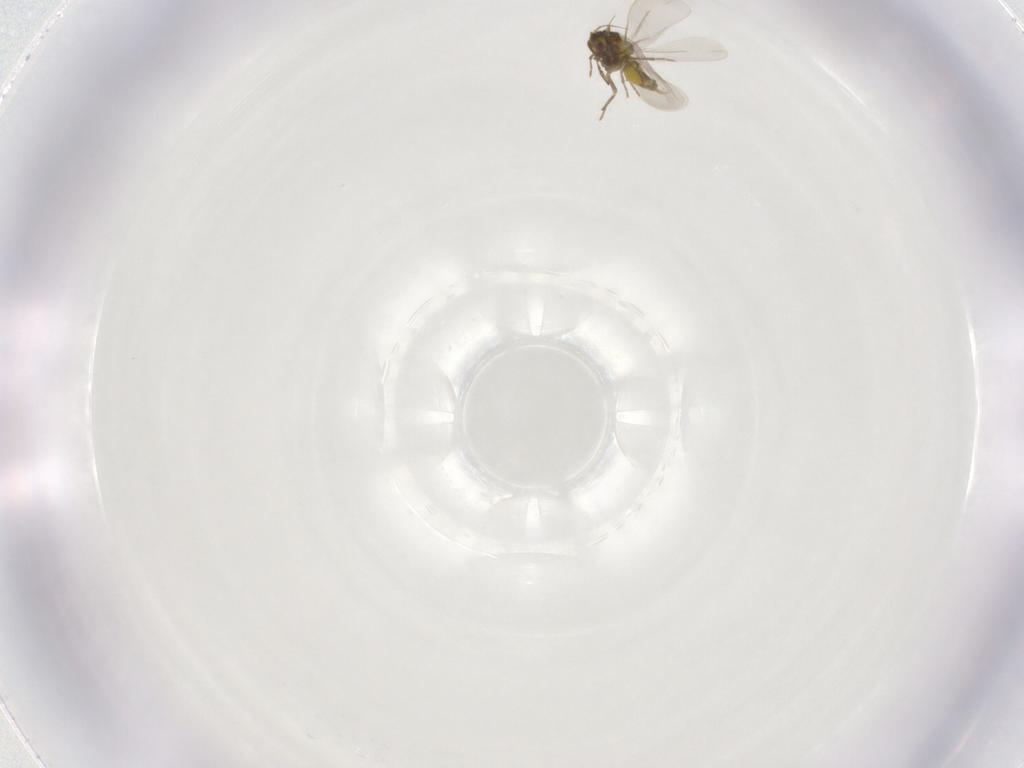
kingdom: Animalia
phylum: Arthropoda
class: Insecta
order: Hemiptera
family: Aleyrodidae
